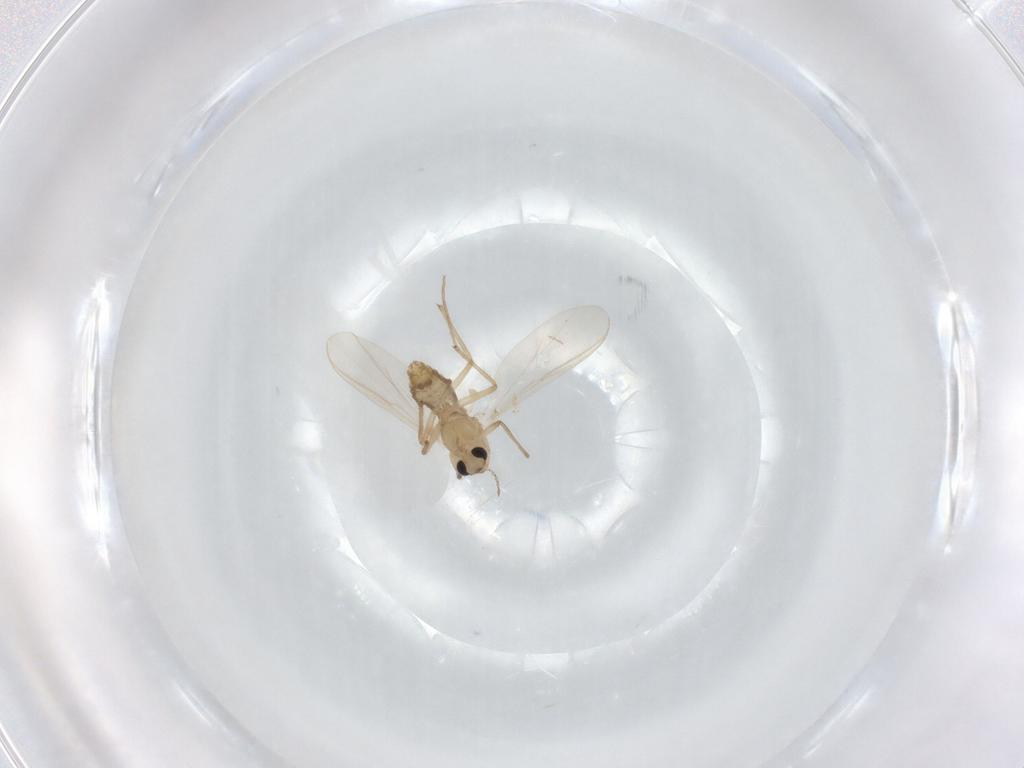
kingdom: Animalia
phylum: Arthropoda
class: Insecta
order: Diptera
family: Chironomidae
